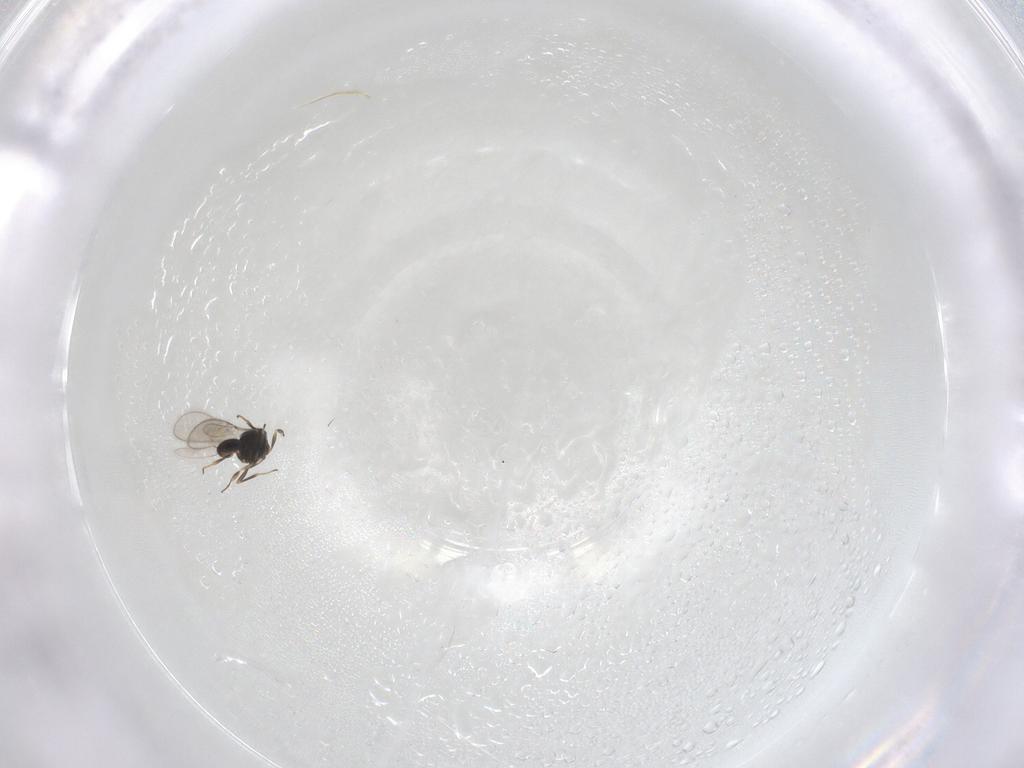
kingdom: Animalia
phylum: Arthropoda
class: Insecta
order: Hymenoptera
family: Scelionidae
